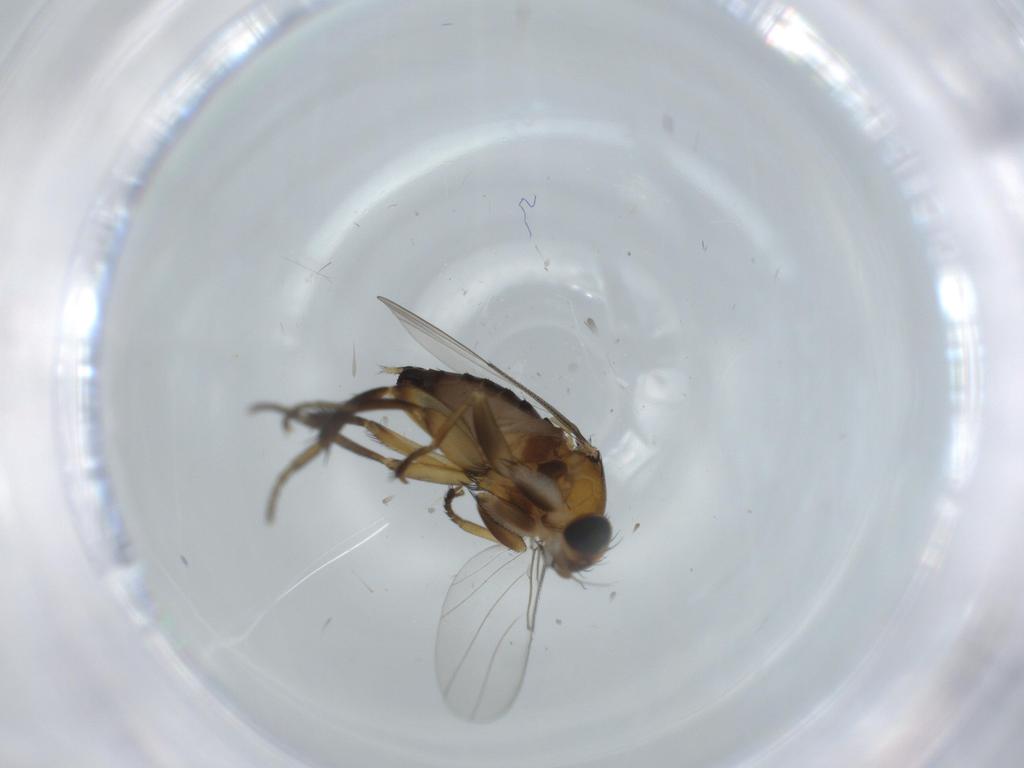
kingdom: Animalia
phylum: Arthropoda
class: Insecta
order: Diptera
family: Phoridae
